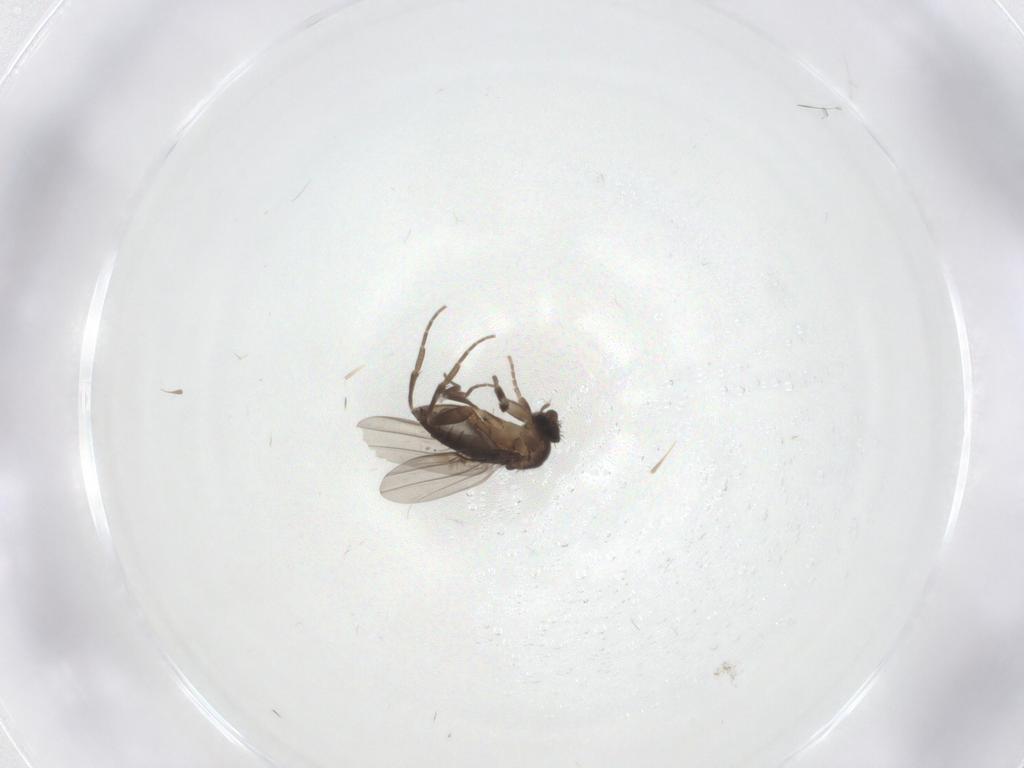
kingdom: Animalia
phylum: Arthropoda
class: Insecta
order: Diptera
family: Phoridae
